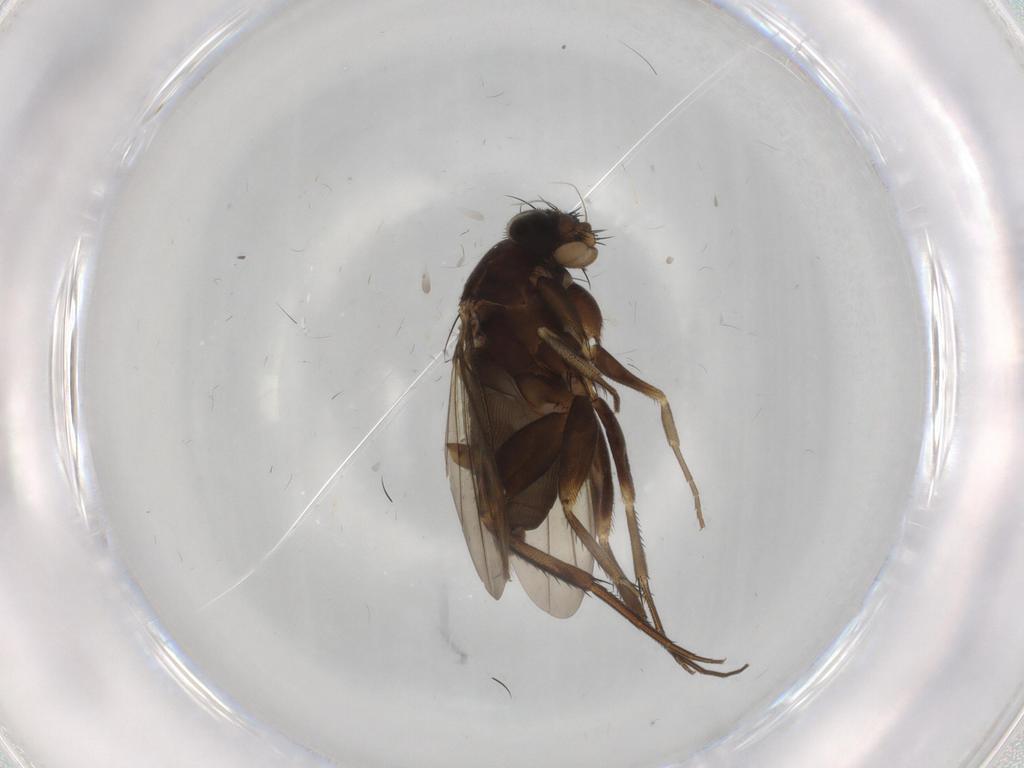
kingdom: Animalia
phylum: Arthropoda
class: Insecta
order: Diptera
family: Phoridae
